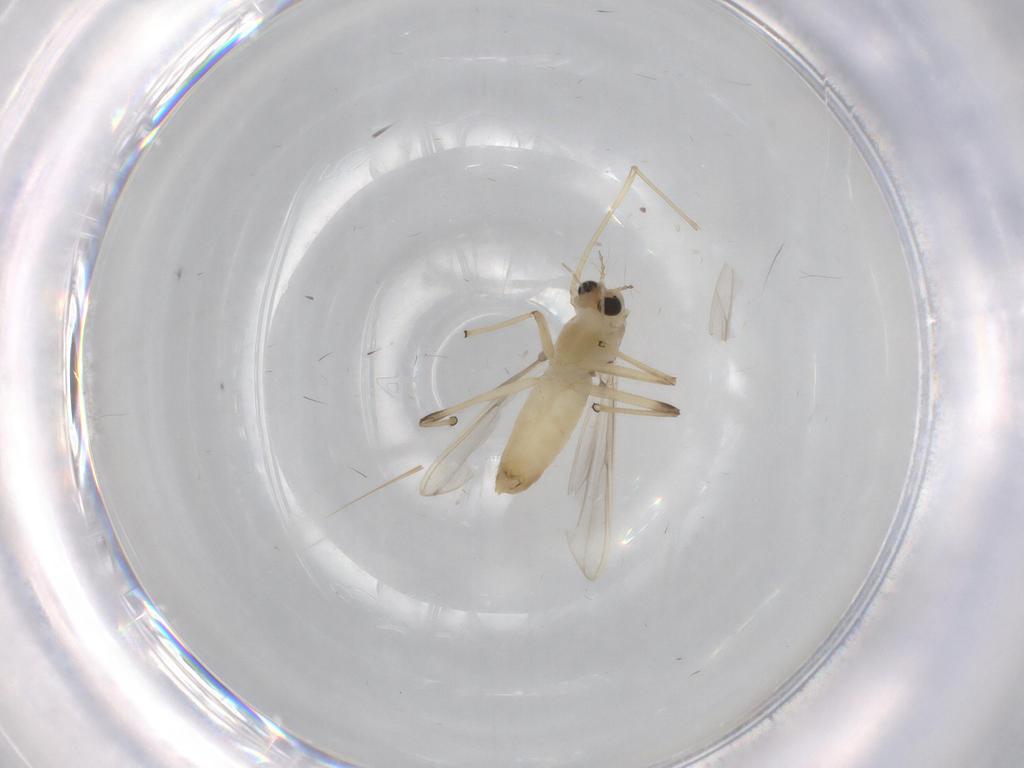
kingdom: Animalia
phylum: Arthropoda
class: Insecta
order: Diptera
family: Chironomidae
